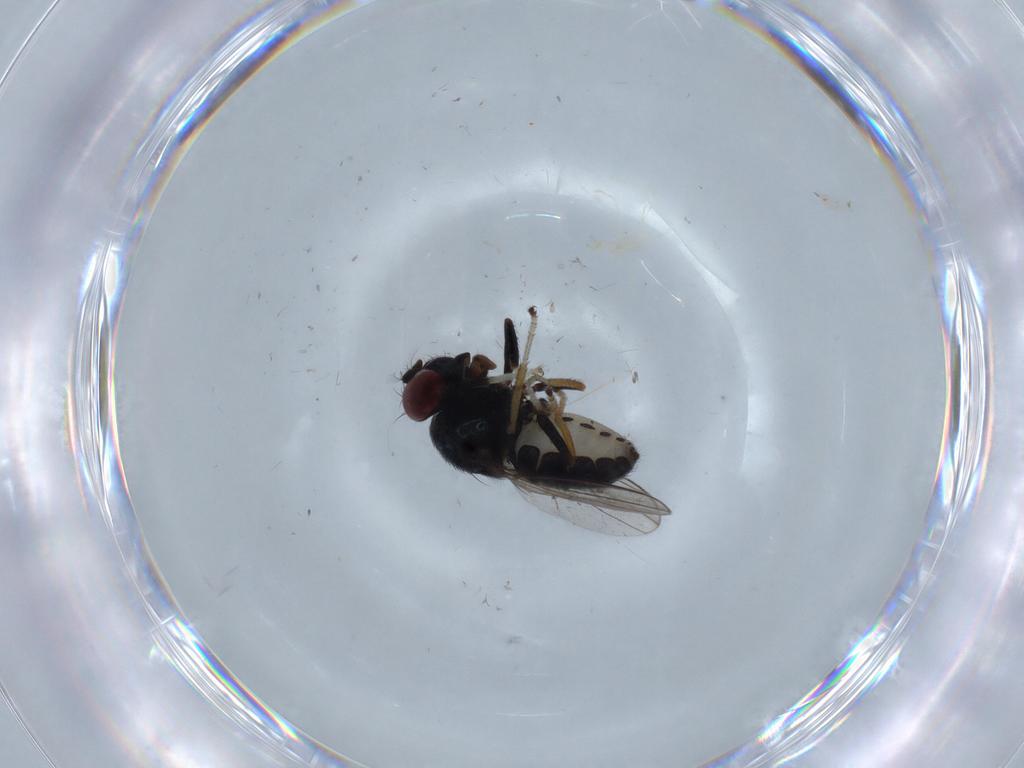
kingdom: Animalia
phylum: Arthropoda
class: Insecta
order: Diptera
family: Ephydridae
